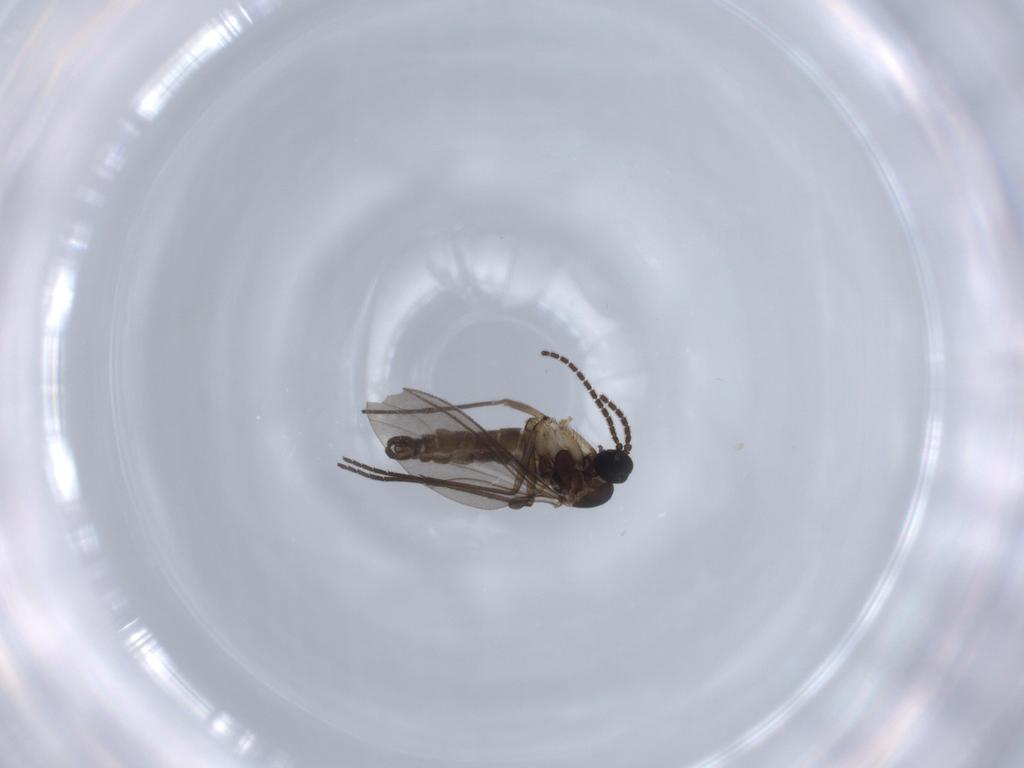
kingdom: Animalia
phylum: Arthropoda
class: Insecta
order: Diptera
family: Sciaridae
